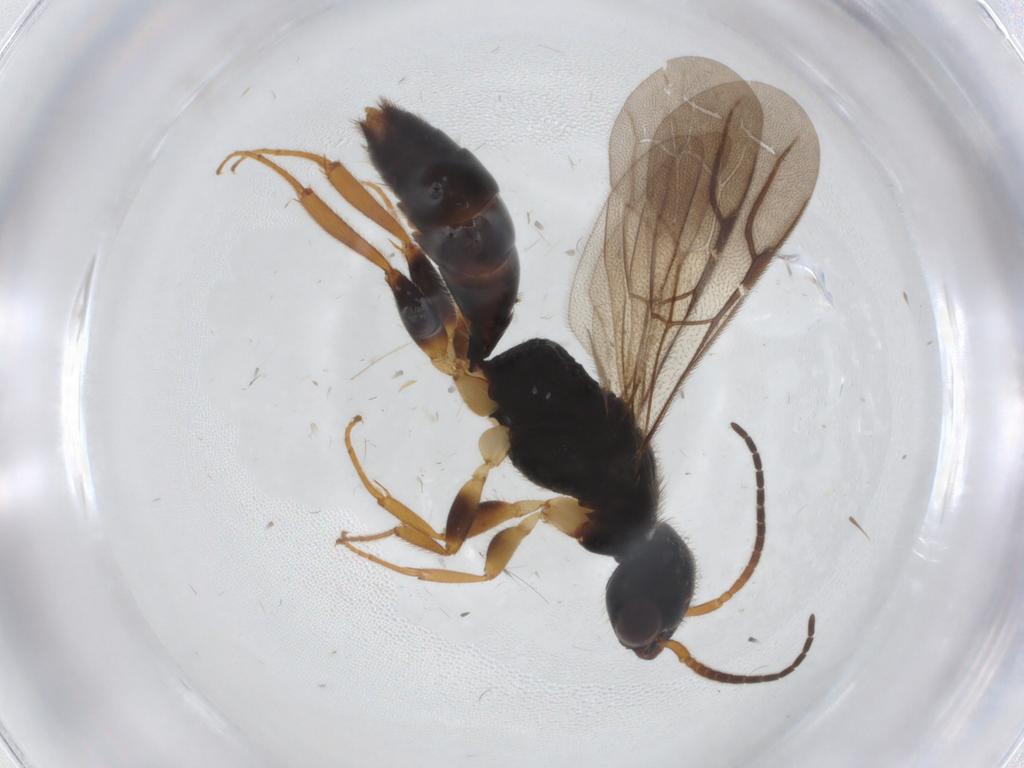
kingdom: Animalia
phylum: Arthropoda
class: Insecta
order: Hymenoptera
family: Bethylidae
